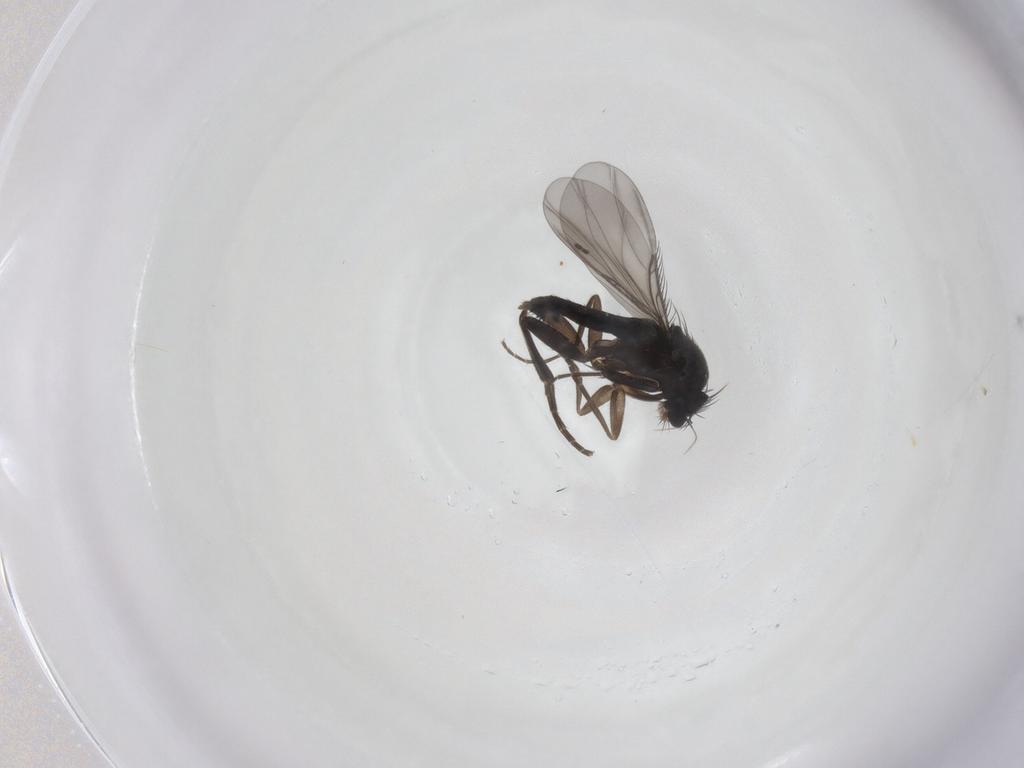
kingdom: Animalia
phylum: Arthropoda
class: Insecta
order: Diptera
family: Phoridae
